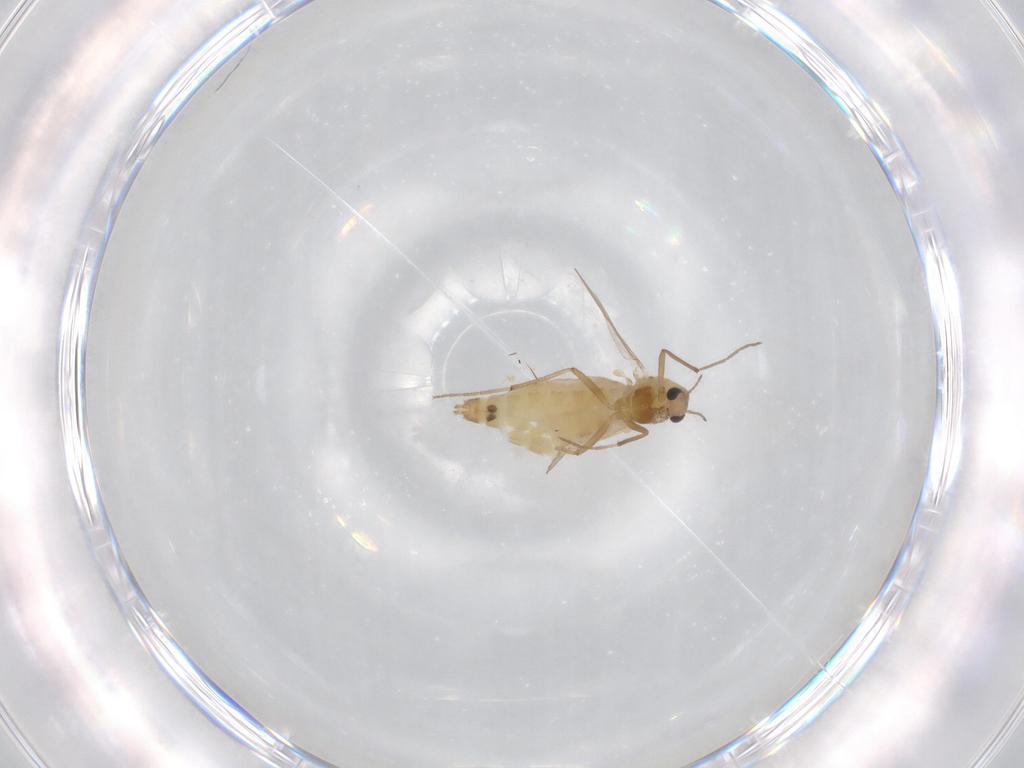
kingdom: Animalia
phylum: Arthropoda
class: Insecta
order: Diptera
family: Chironomidae
